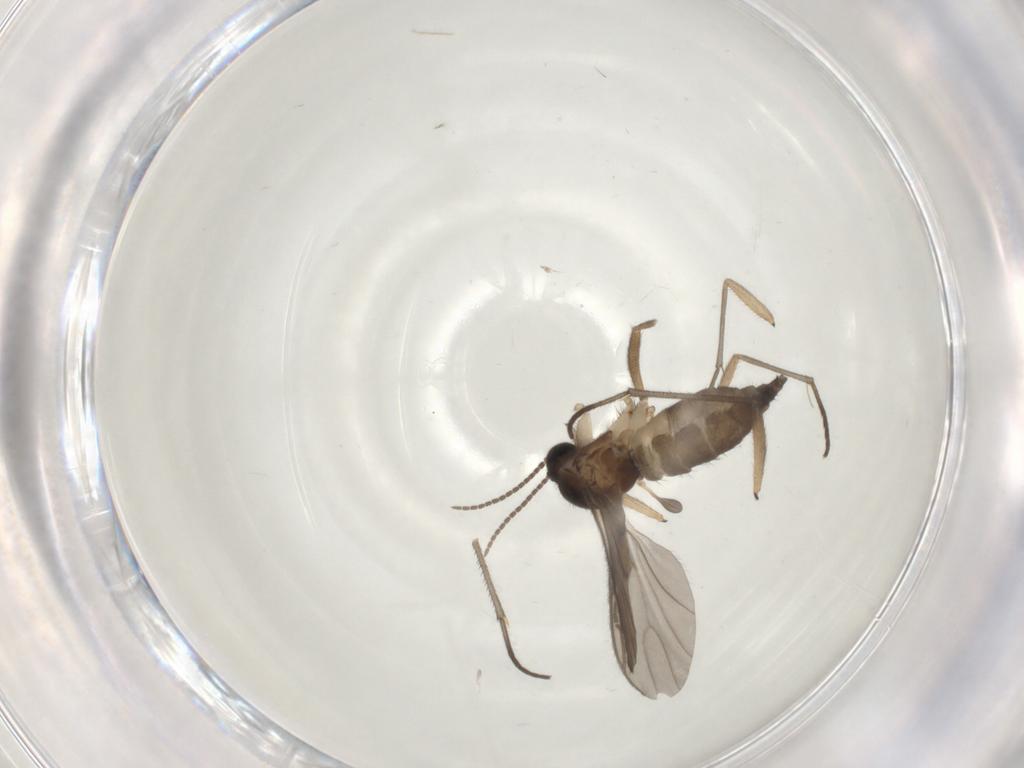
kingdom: Animalia
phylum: Arthropoda
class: Insecta
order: Diptera
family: Sciaridae
